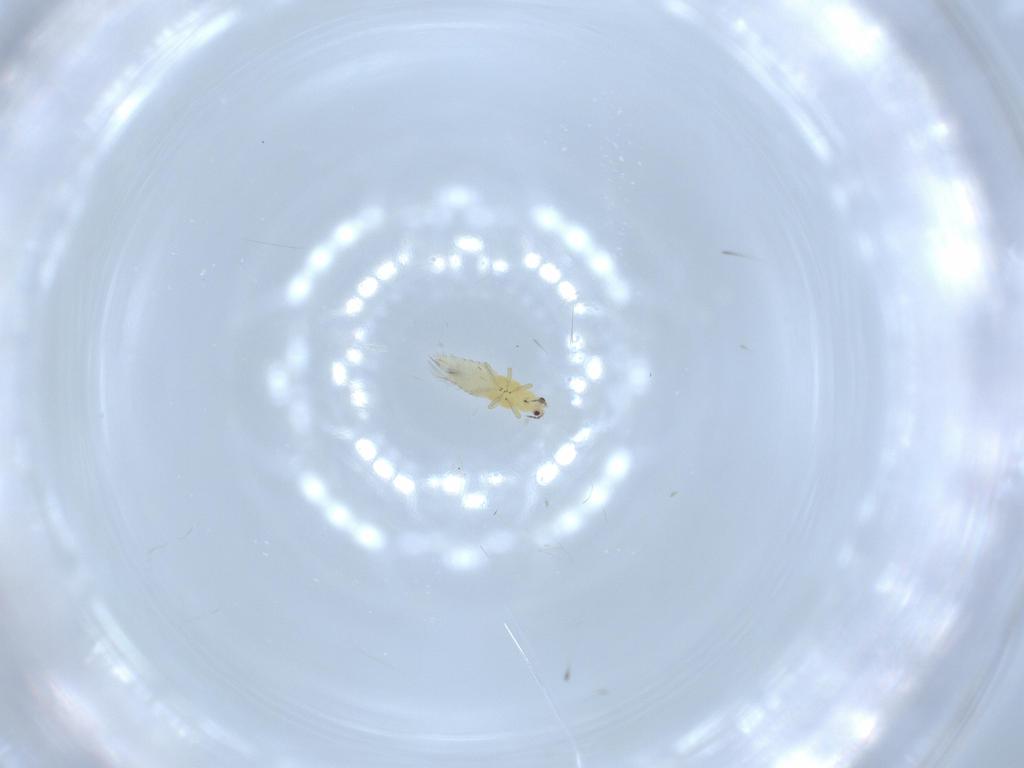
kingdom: Animalia
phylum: Arthropoda
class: Insecta
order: Thysanoptera
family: Thripidae
